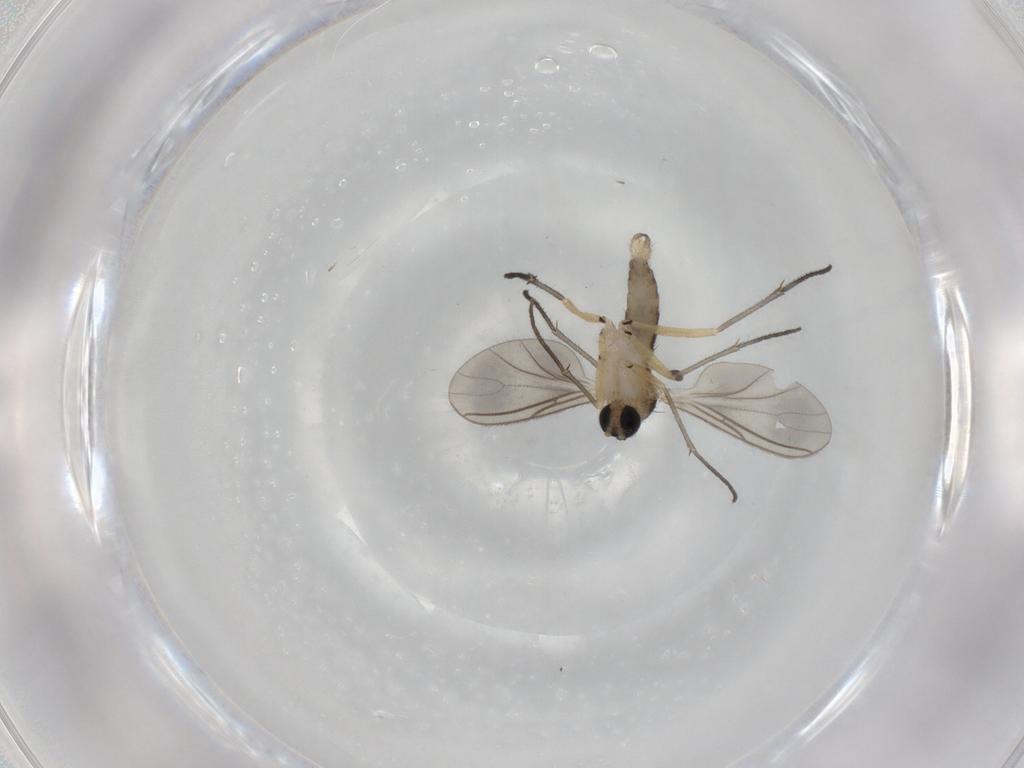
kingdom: Animalia
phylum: Arthropoda
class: Insecta
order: Diptera
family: Sciaridae
